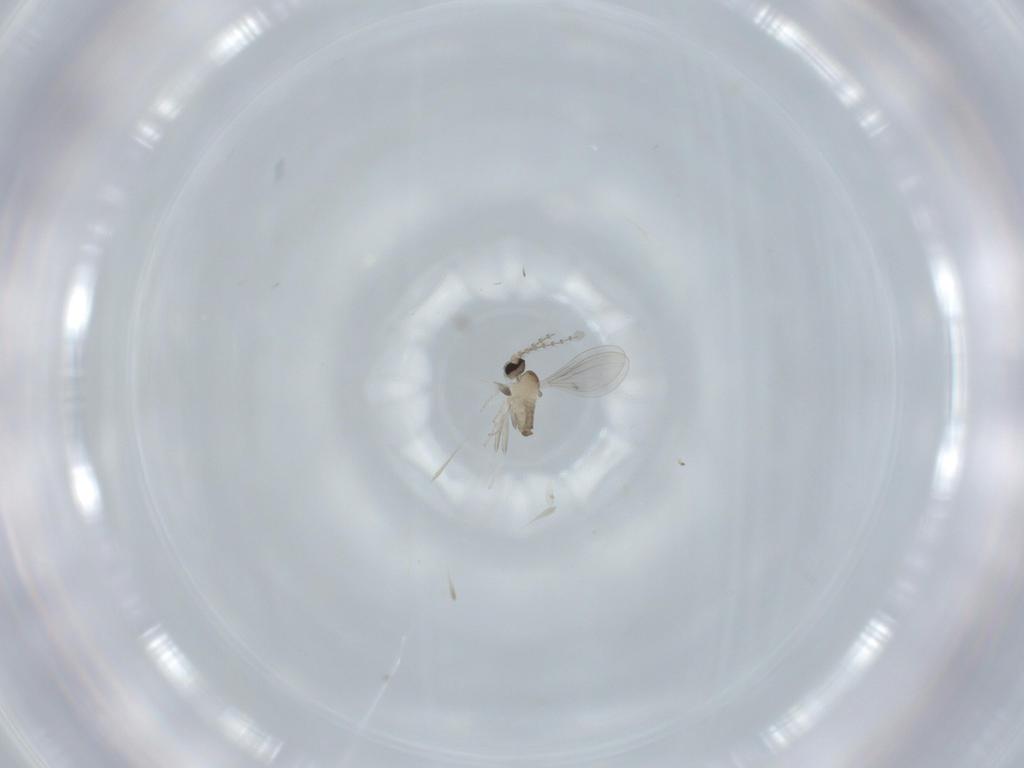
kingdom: Animalia
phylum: Arthropoda
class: Insecta
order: Diptera
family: Cecidomyiidae
